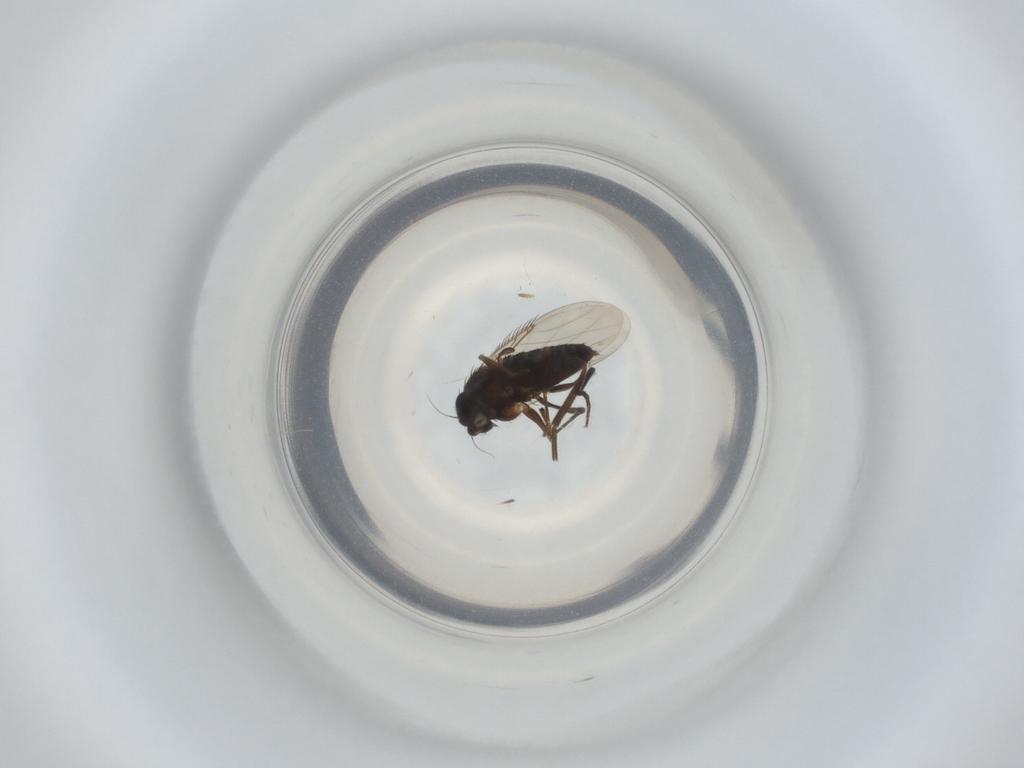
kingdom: Animalia
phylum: Arthropoda
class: Insecta
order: Diptera
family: Phoridae
